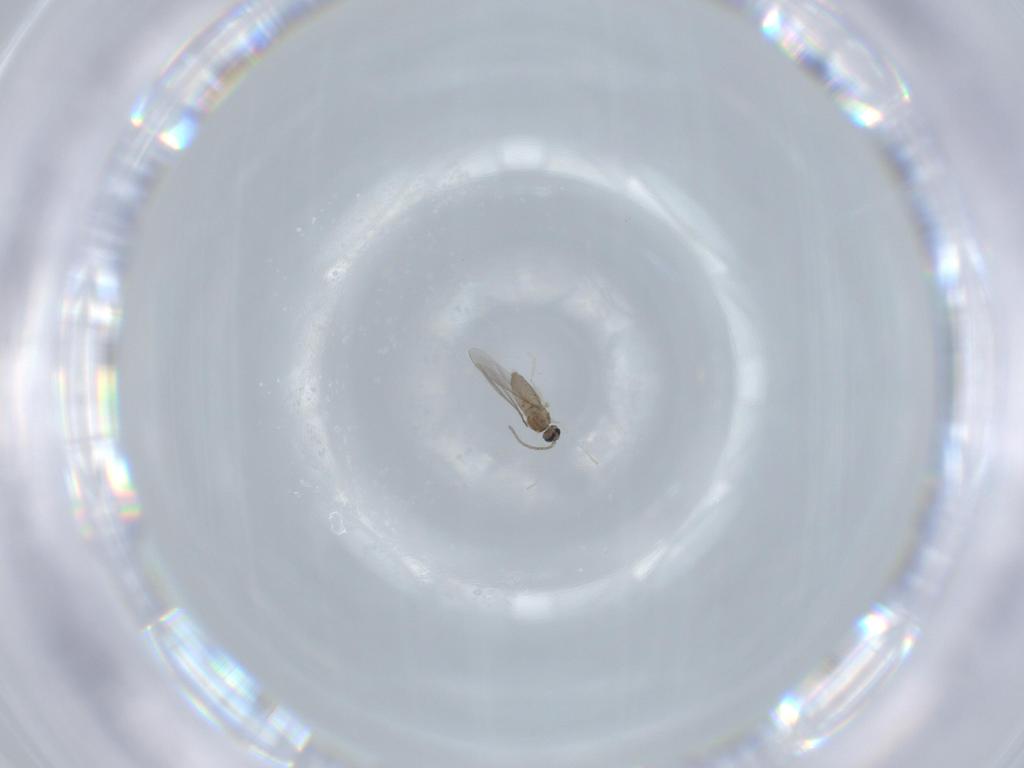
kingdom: Animalia
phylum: Arthropoda
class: Insecta
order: Diptera
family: Cecidomyiidae
